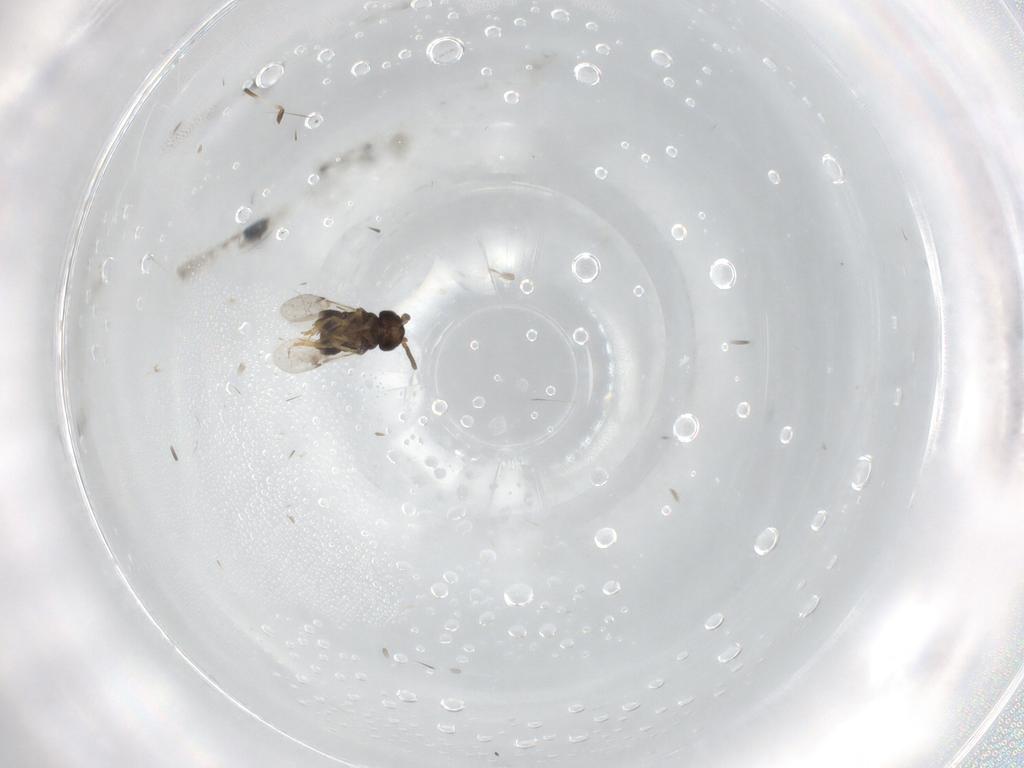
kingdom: Animalia
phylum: Arthropoda
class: Insecta
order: Diptera
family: Chironomidae
